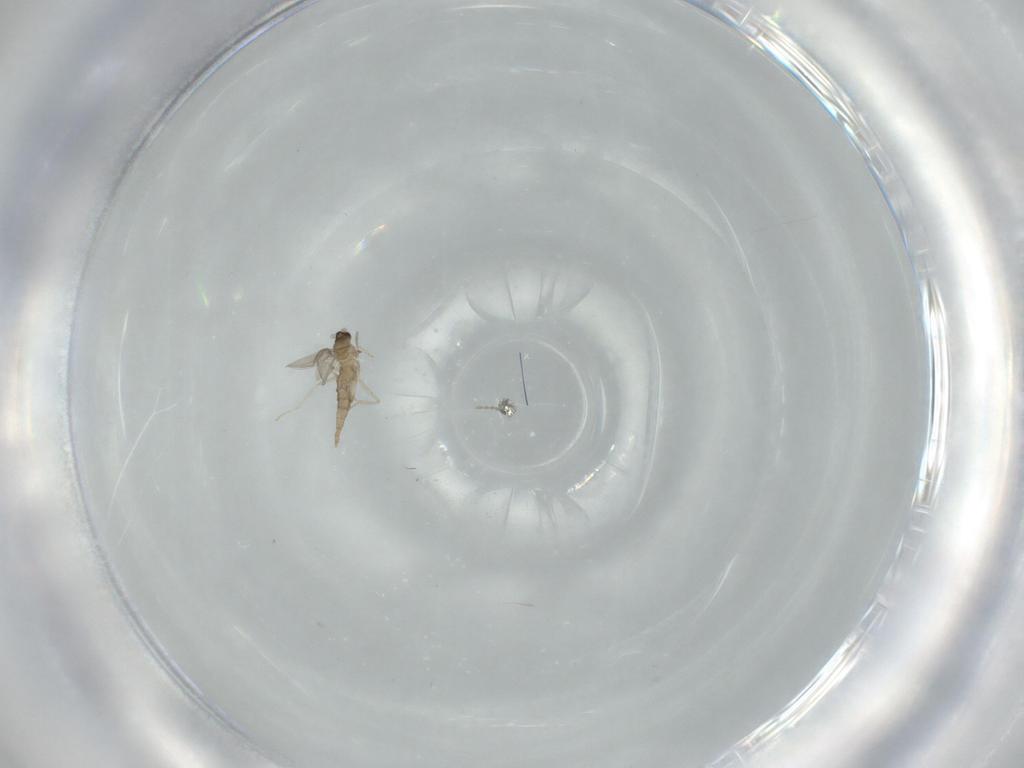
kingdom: Animalia
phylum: Arthropoda
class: Insecta
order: Diptera
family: Cecidomyiidae
